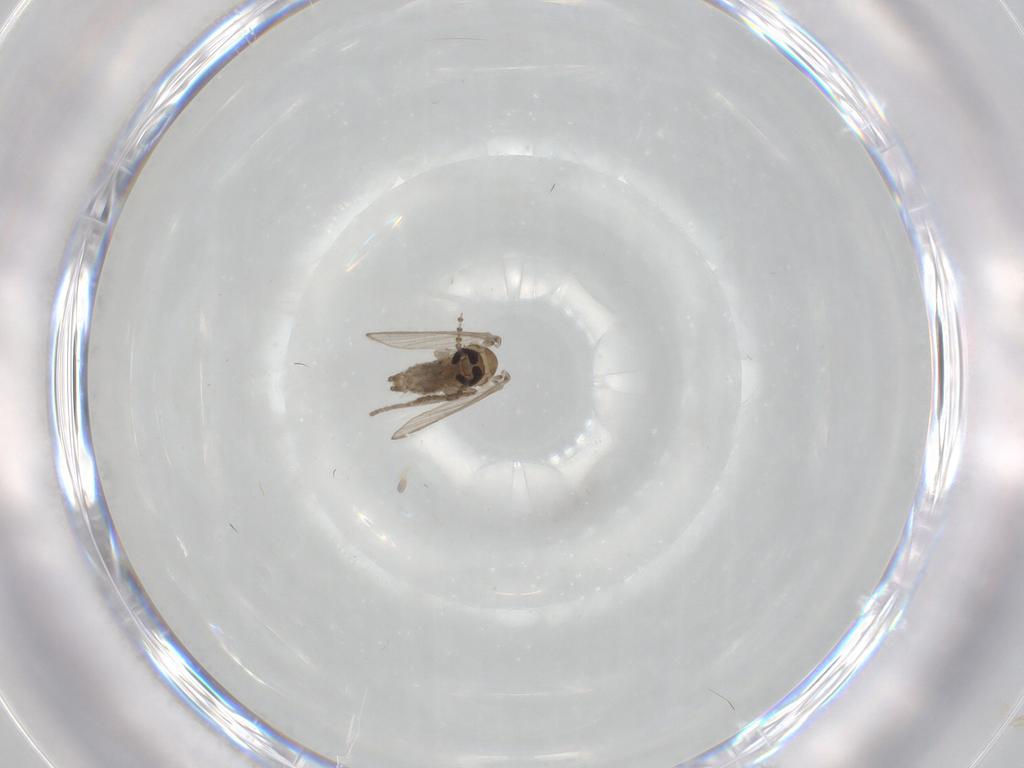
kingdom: Animalia
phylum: Arthropoda
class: Insecta
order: Diptera
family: Psychodidae
